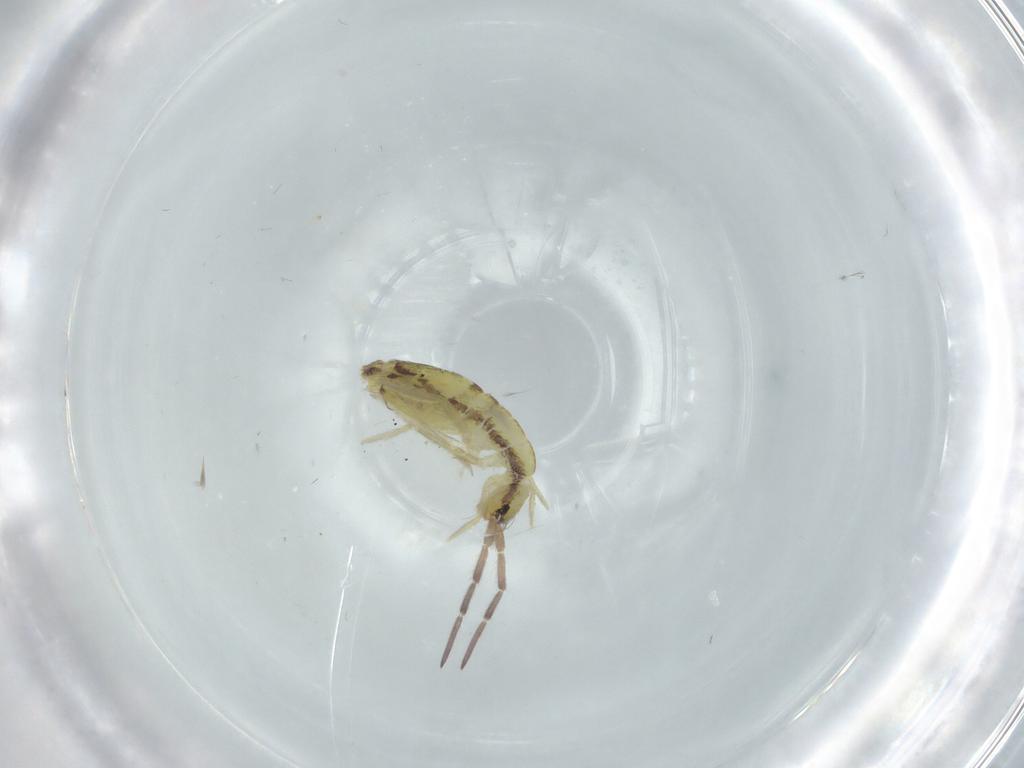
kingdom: Animalia
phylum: Arthropoda
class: Collembola
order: Entomobryomorpha
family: Entomobryidae
